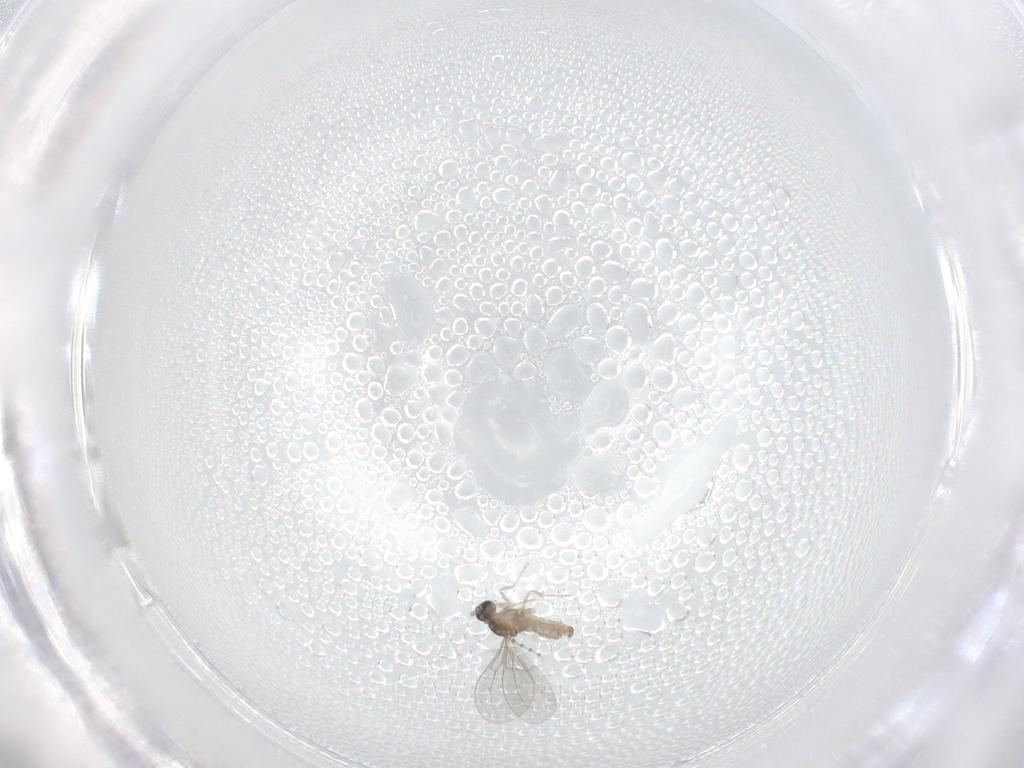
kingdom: Animalia
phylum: Arthropoda
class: Insecta
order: Diptera
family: Cecidomyiidae
